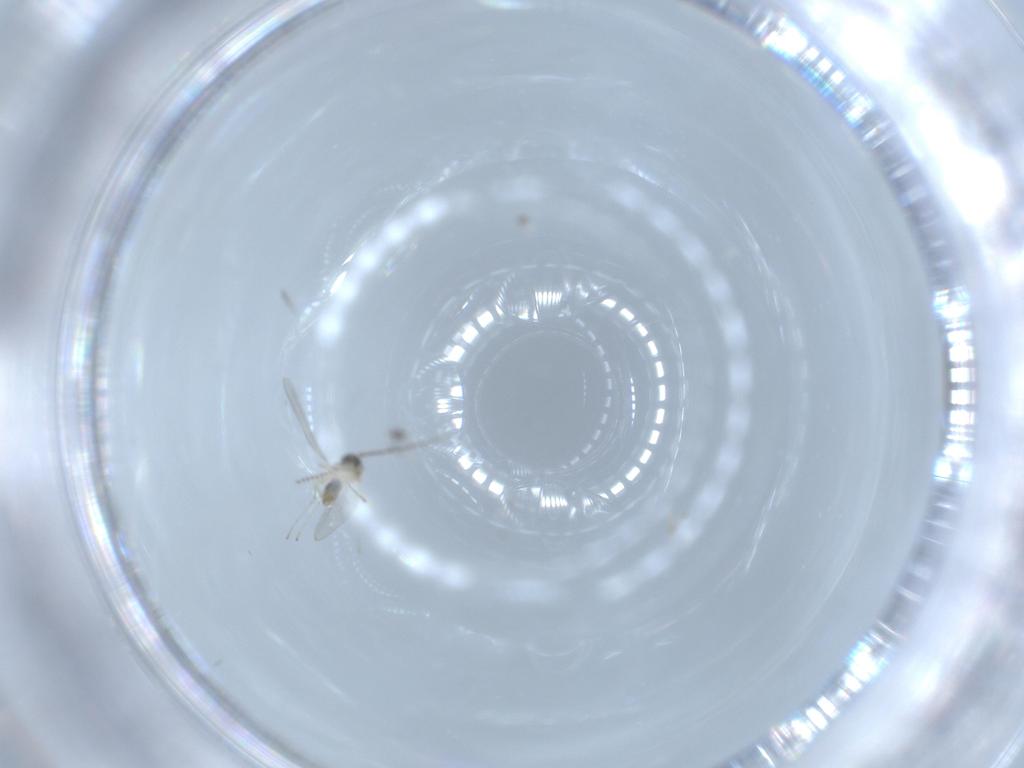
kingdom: Animalia
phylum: Arthropoda
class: Insecta
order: Diptera
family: Cecidomyiidae
